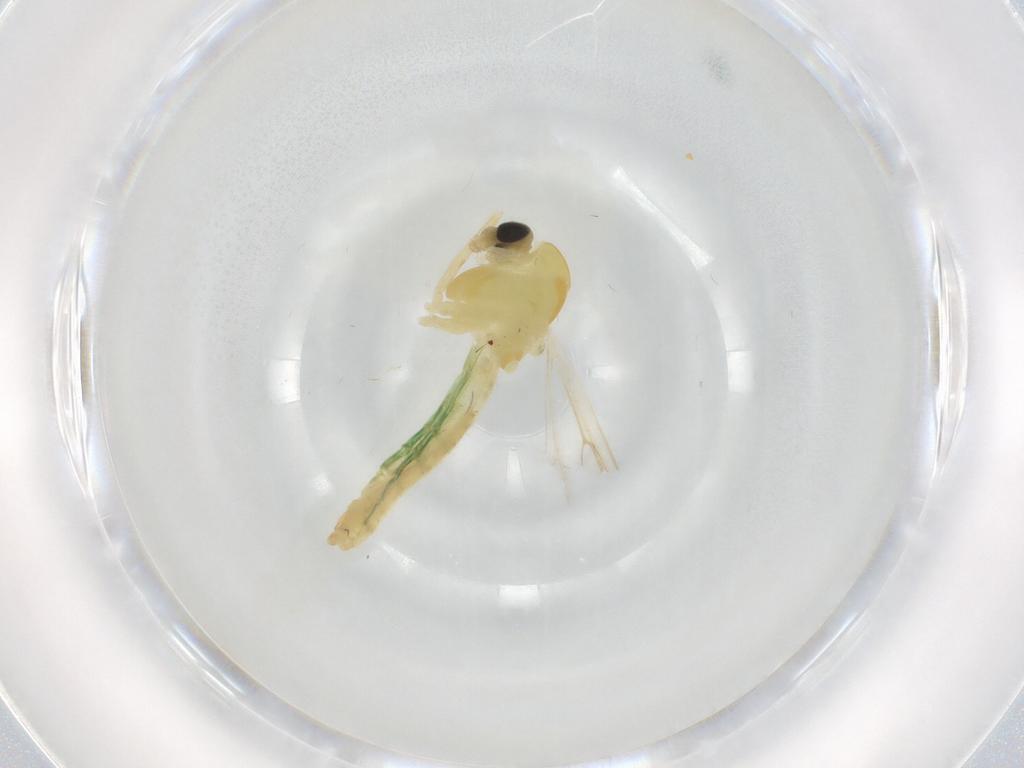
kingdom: Animalia
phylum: Arthropoda
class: Insecta
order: Diptera
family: Chironomidae
